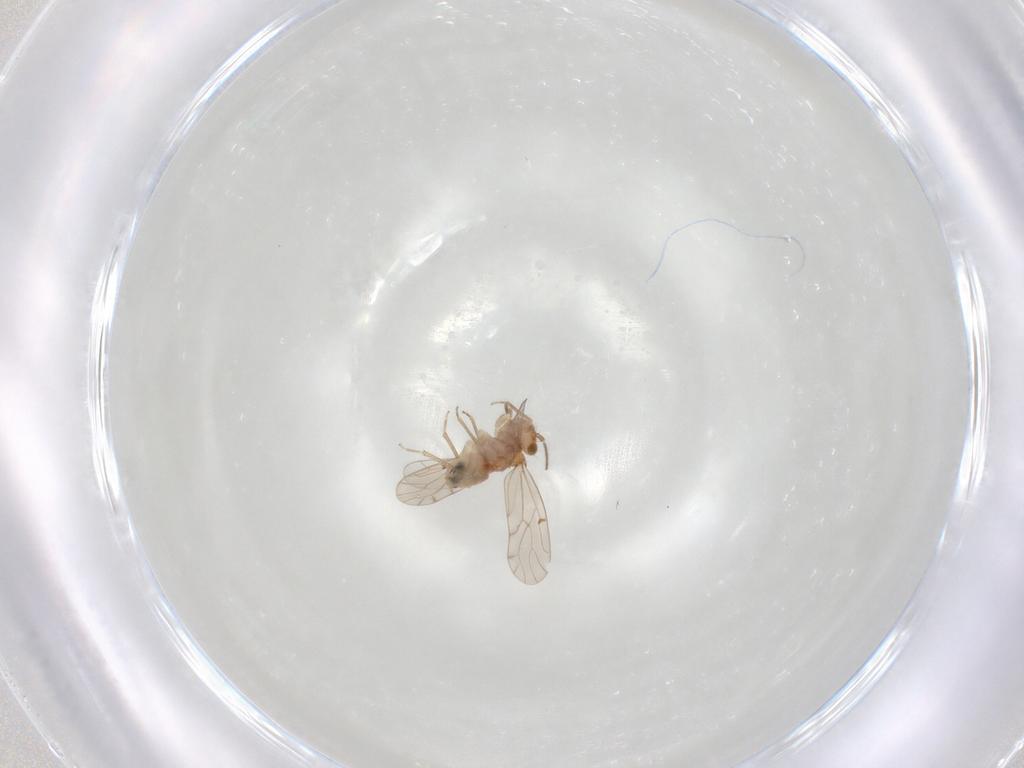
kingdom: Animalia
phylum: Arthropoda
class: Insecta
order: Psocodea
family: Ectopsocidae
